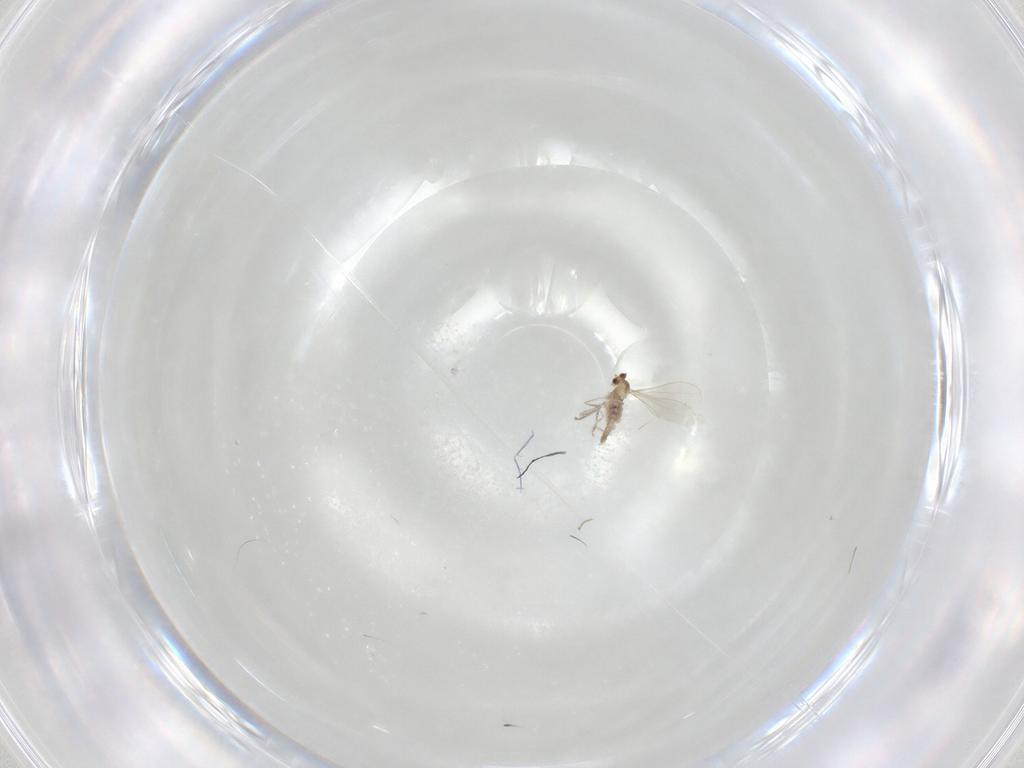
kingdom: Animalia
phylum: Arthropoda
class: Insecta
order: Diptera
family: Cecidomyiidae
